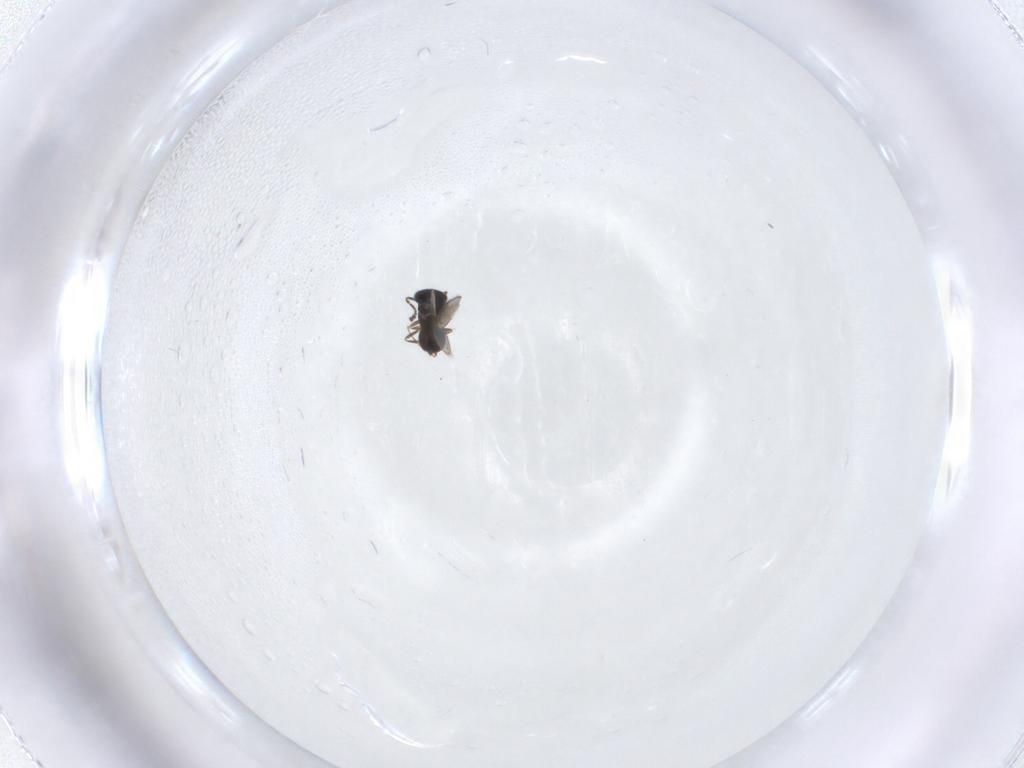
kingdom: Animalia
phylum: Arthropoda
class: Insecta
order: Hymenoptera
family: Scelionidae
